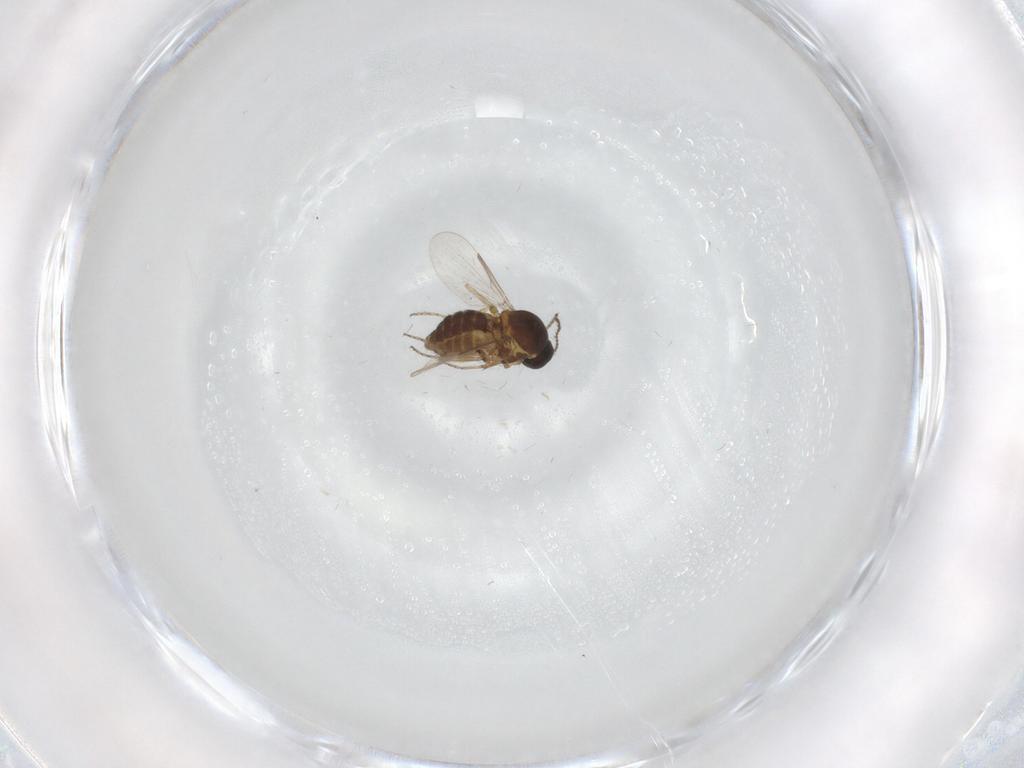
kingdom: Animalia
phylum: Arthropoda
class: Insecta
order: Diptera
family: Ceratopogonidae
